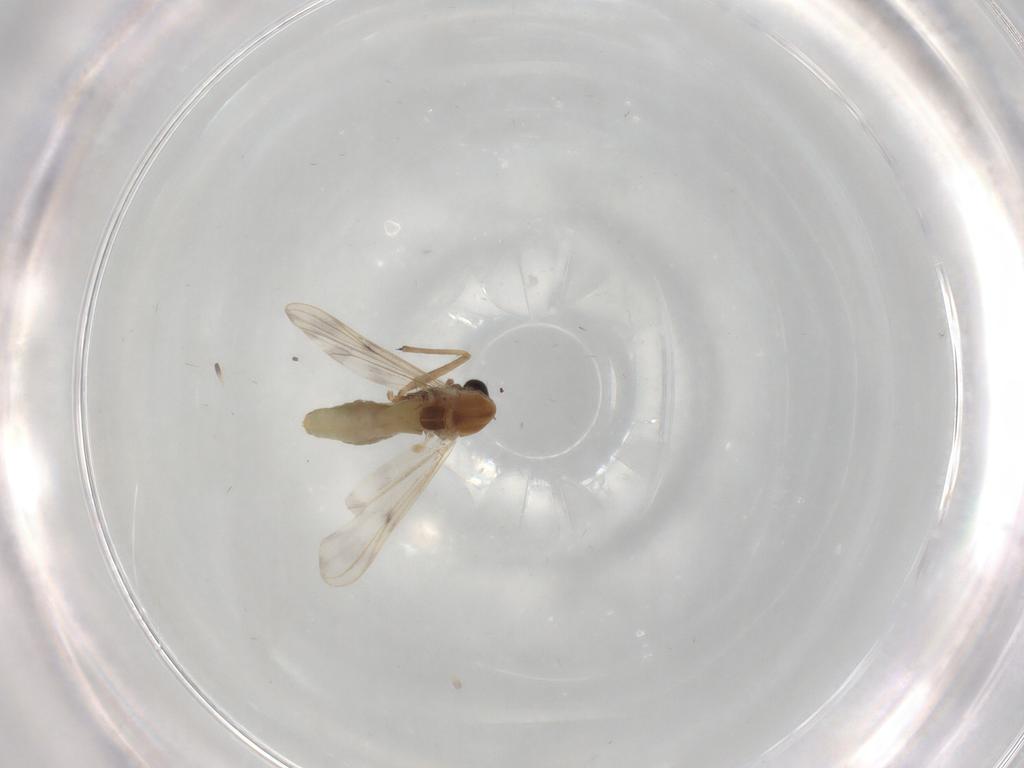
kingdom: Animalia
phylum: Arthropoda
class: Insecta
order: Diptera
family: Chironomidae
